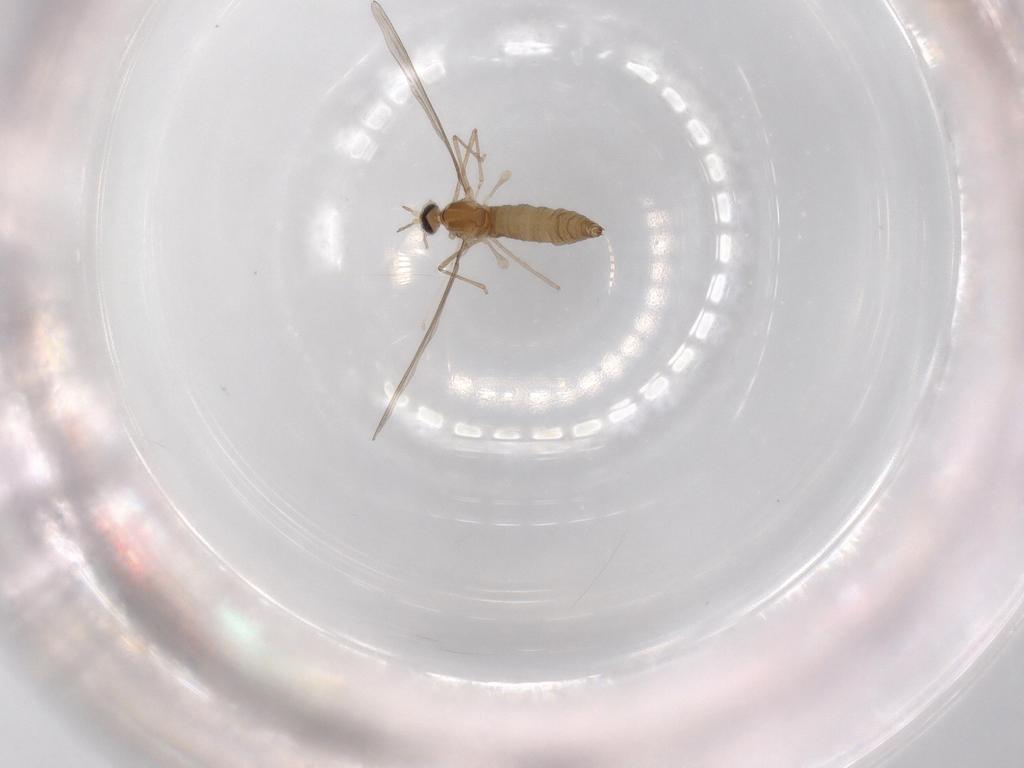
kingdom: Animalia
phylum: Arthropoda
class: Insecta
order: Diptera
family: Cecidomyiidae
